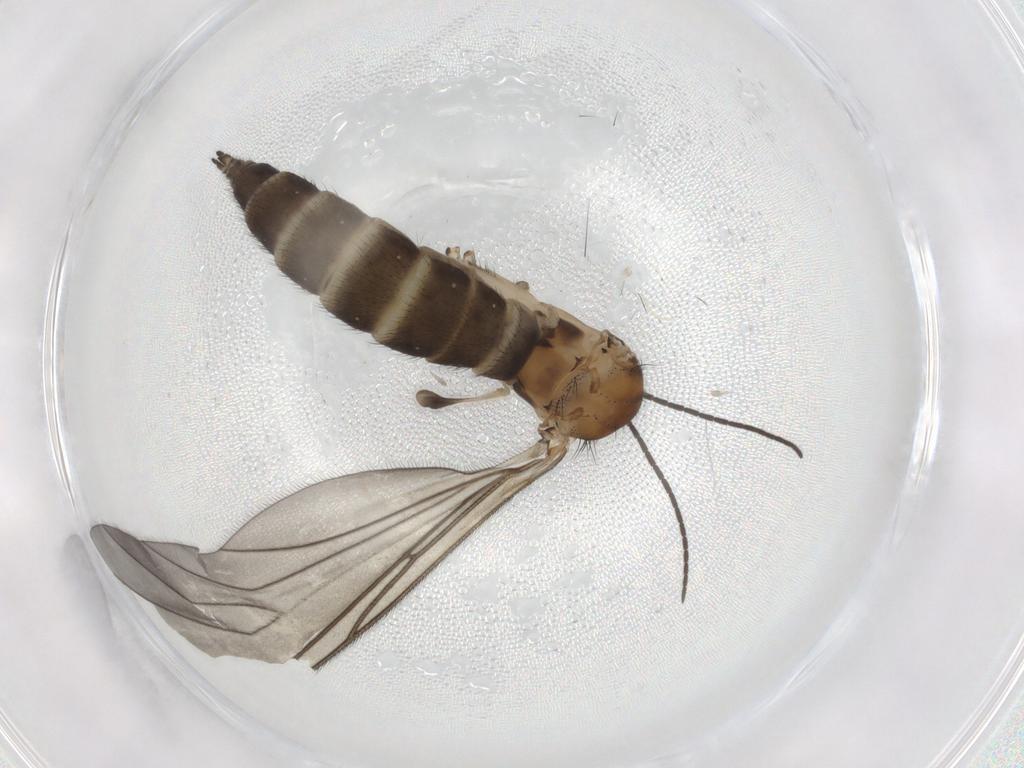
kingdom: Animalia
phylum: Arthropoda
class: Insecta
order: Diptera
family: Sciaridae
